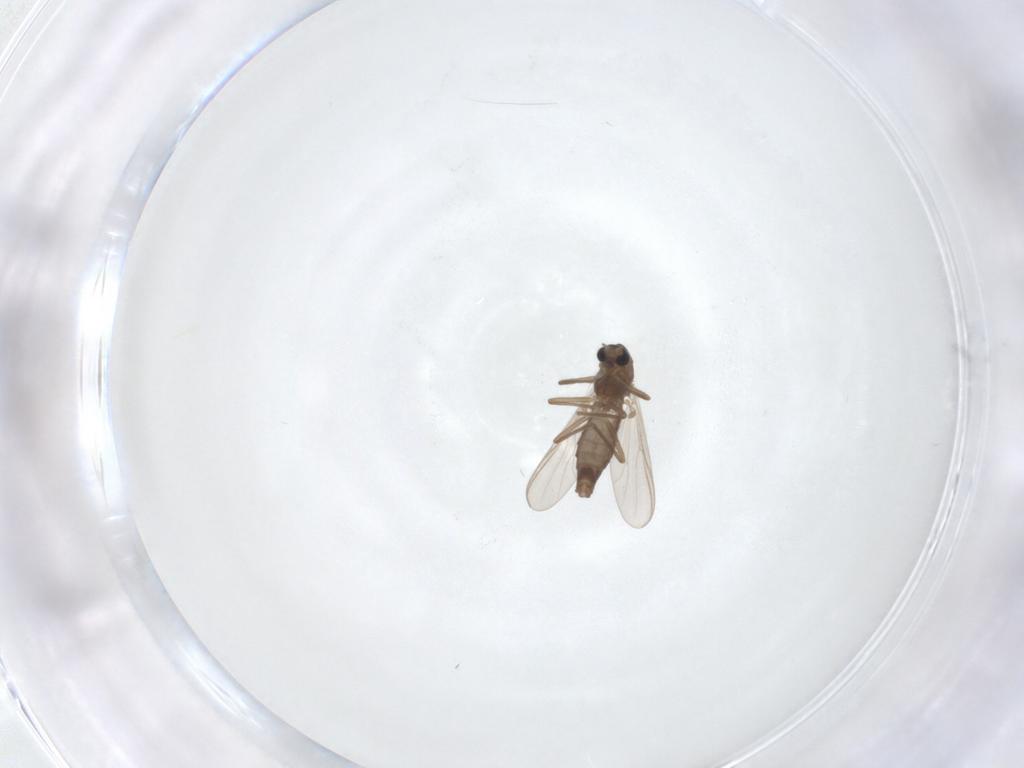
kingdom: Animalia
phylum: Arthropoda
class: Insecta
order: Diptera
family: Chironomidae
